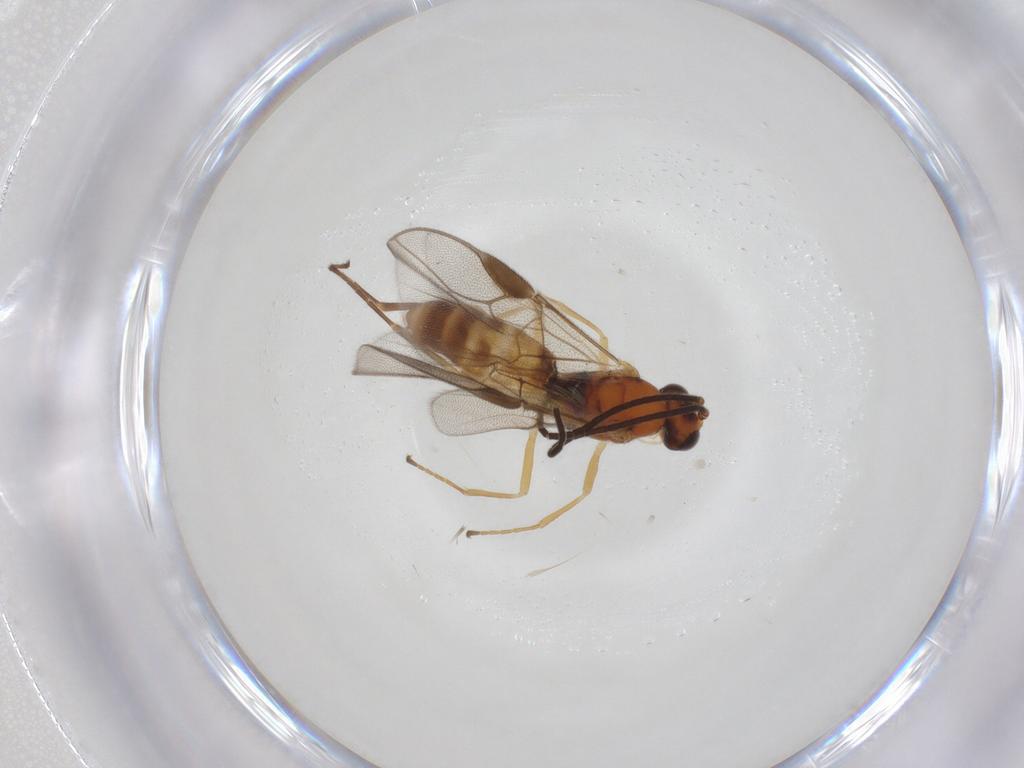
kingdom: Animalia
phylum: Arthropoda
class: Insecta
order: Hymenoptera
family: Braconidae
